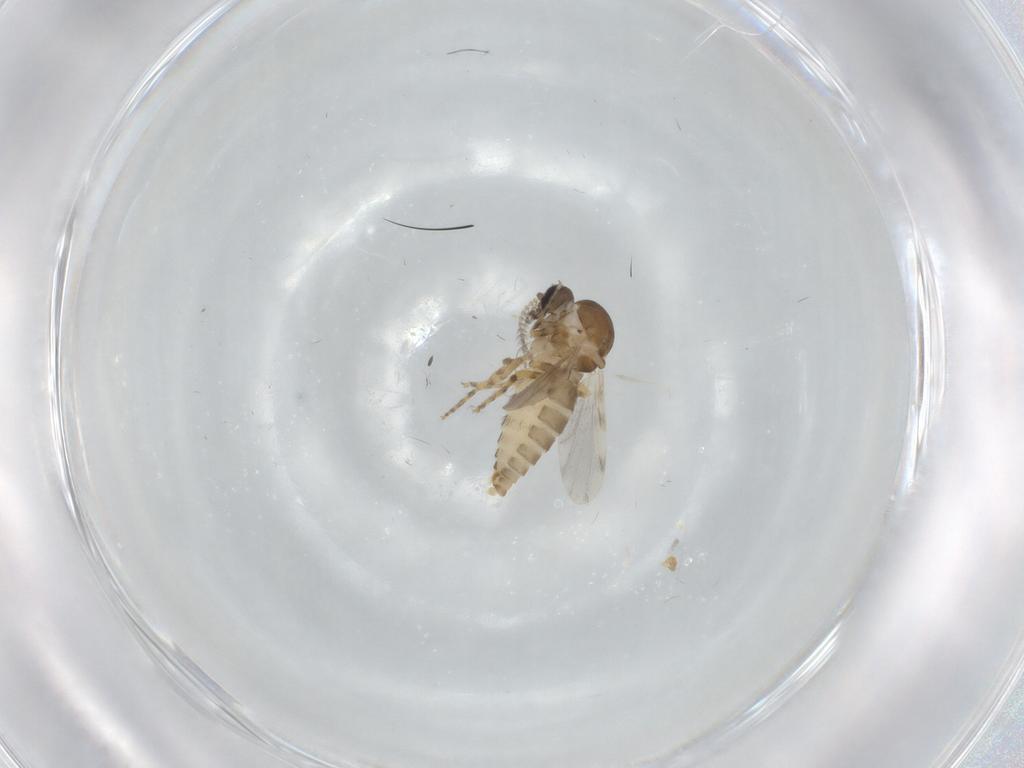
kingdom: Animalia
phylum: Arthropoda
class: Insecta
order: Diptera
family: Ceratopogonidae
